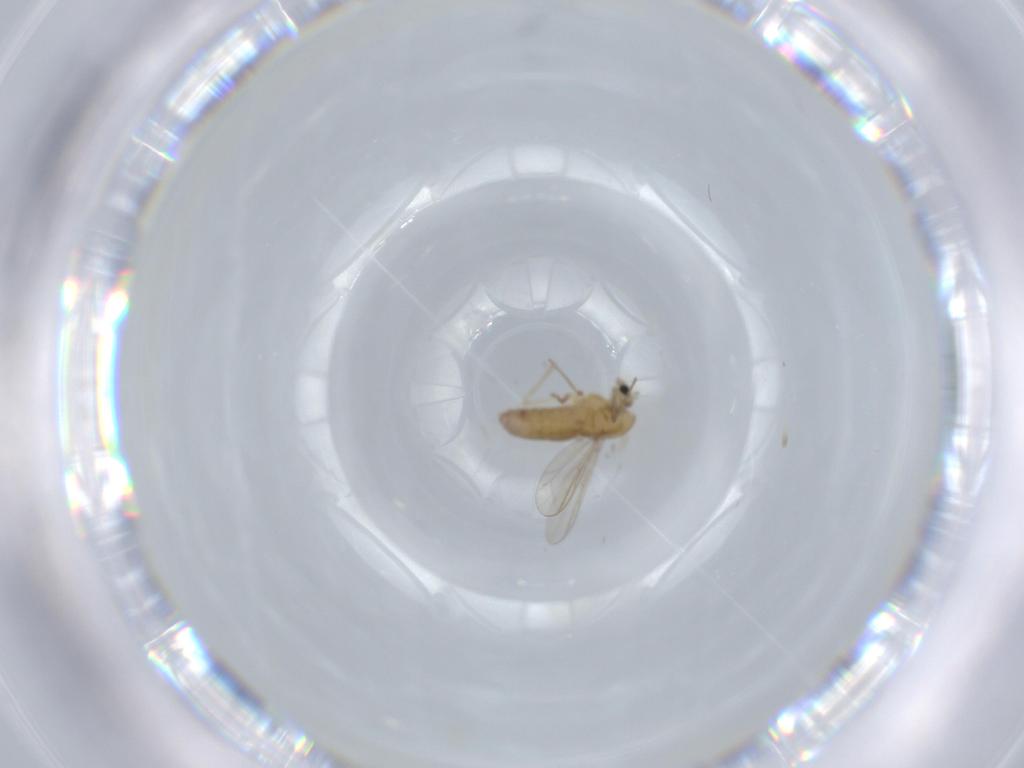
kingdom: Animalia
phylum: Arthropoda
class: Insecta
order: Diptera
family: Chironomidae
